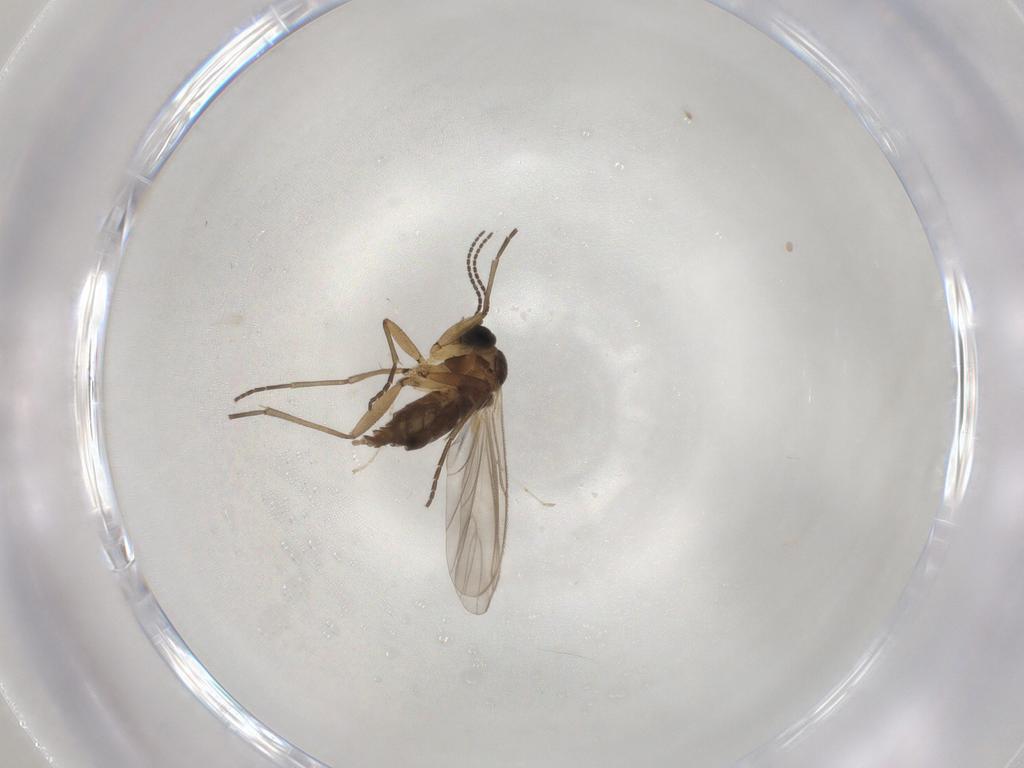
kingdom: Animalia
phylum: Arthropoda
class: Insecta
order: Diptera
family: Cecidomyiidae
